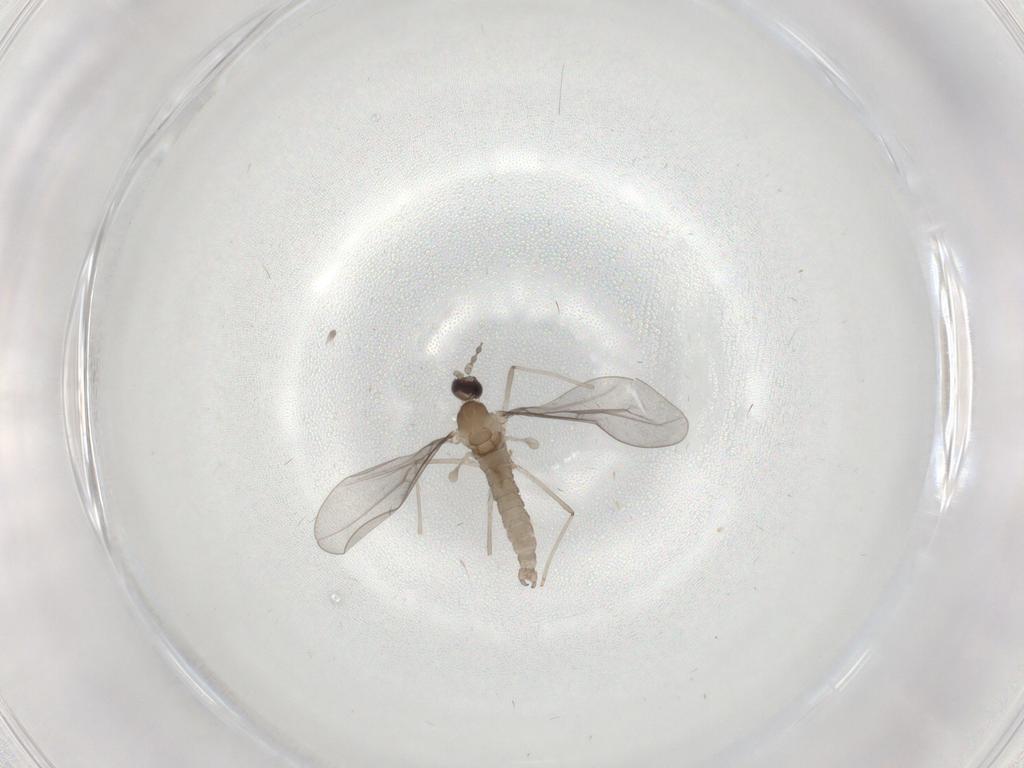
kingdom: Animalia
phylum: Arthropoda
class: Insecta
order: Diptera
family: Cecidomyiidae
